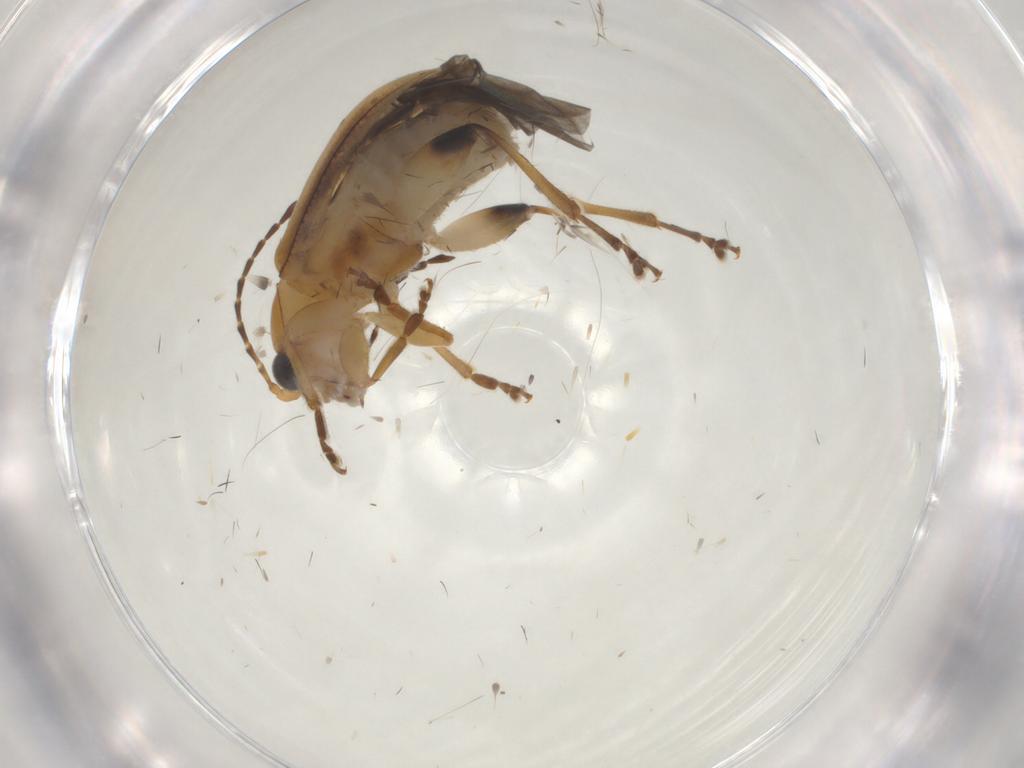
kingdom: Animalia
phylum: Arthropoda
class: Insecta
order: Coleoptera
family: Chrysomelidae
